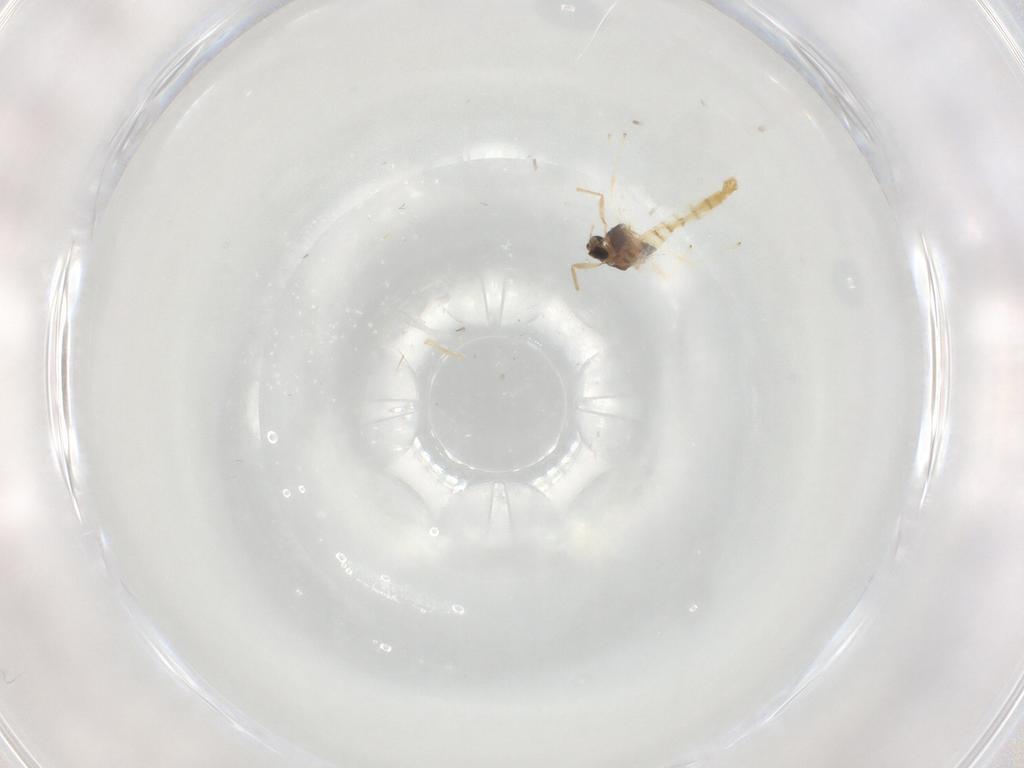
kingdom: Animalia
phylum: Arthropoda
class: Insecta
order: Diptera
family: Chironomidae
